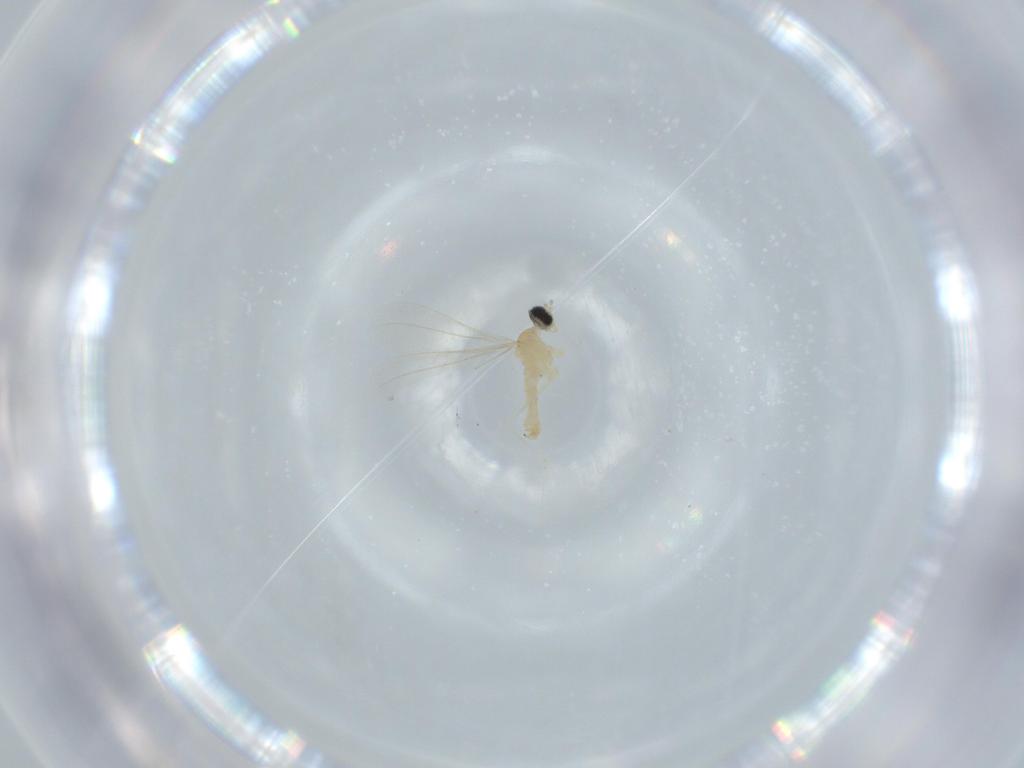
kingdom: Animalia
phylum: Arthropoda
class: Insecta
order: Diptera
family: Cecidomyiidae
